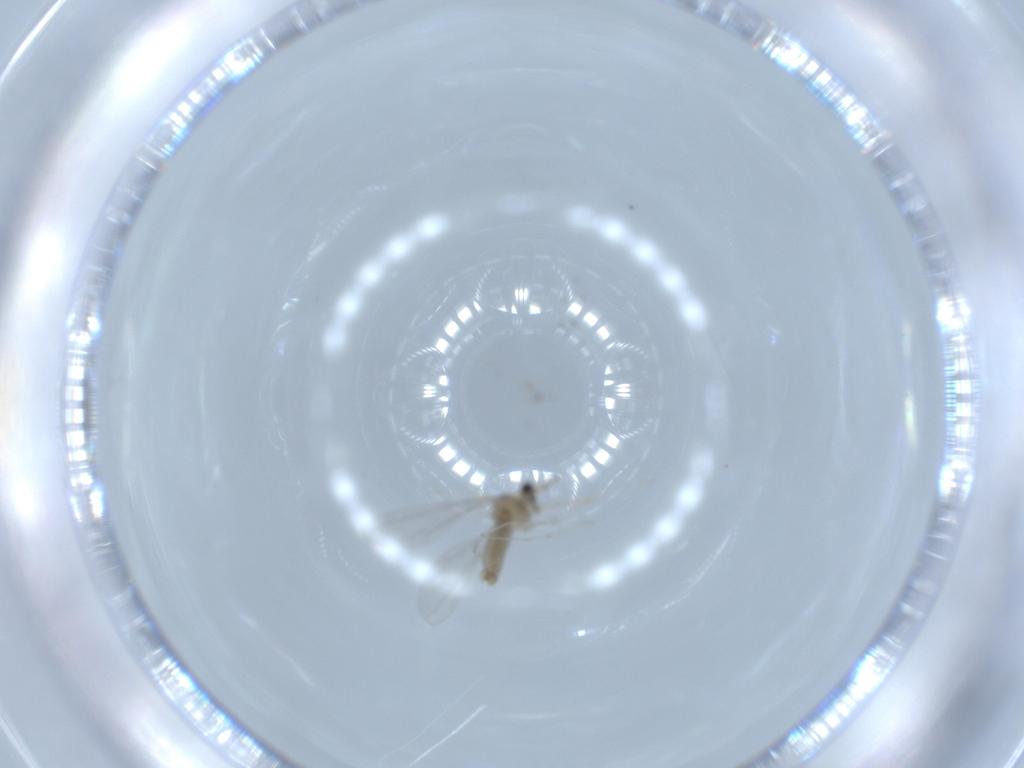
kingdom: Animalia
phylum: Arthropoda
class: Insecta
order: Diptera
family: Cecidomyiidae
